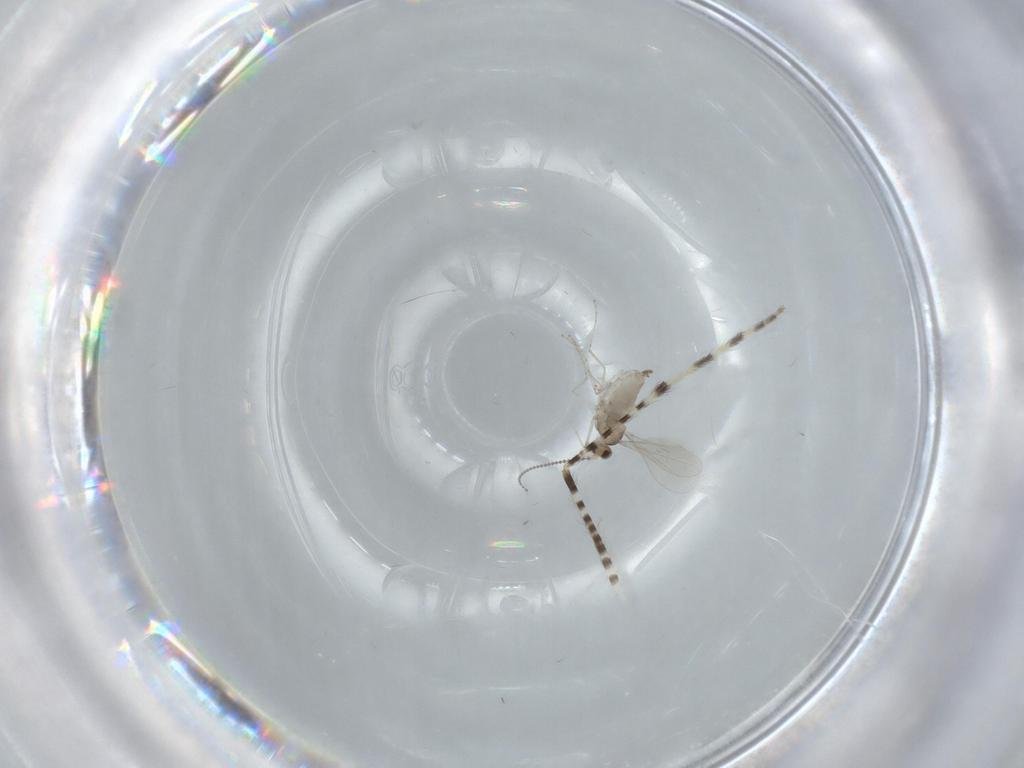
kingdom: Animalia
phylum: Arthropoda
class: Insecta
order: Diptera
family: Corethrellidae
